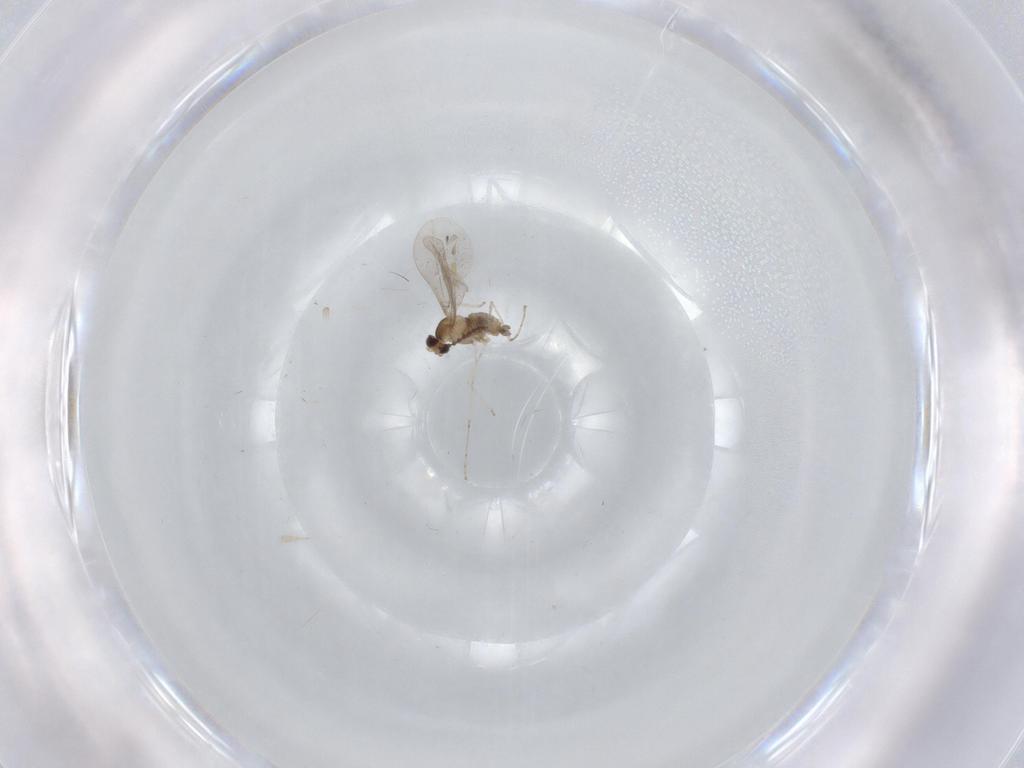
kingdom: Animalia
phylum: Arthropoda
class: Insecta
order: Diptera
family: Cecidomyiidae
